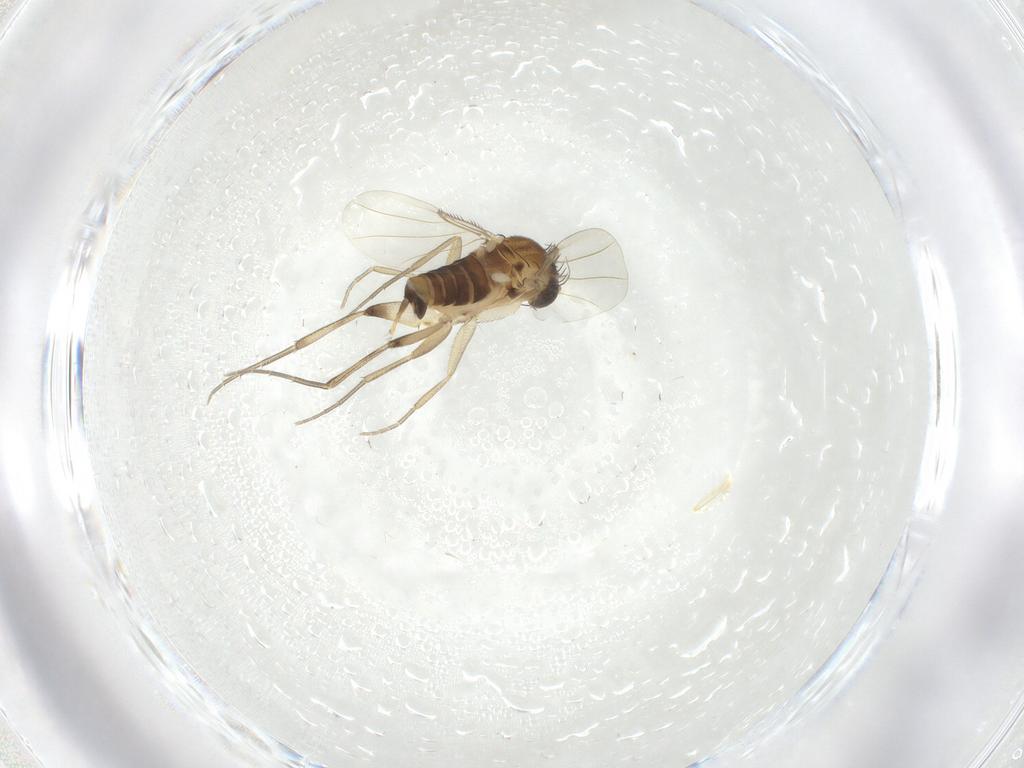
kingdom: Animalia
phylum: Arthropoda
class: Insecta
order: Diptera
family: Phoridae
